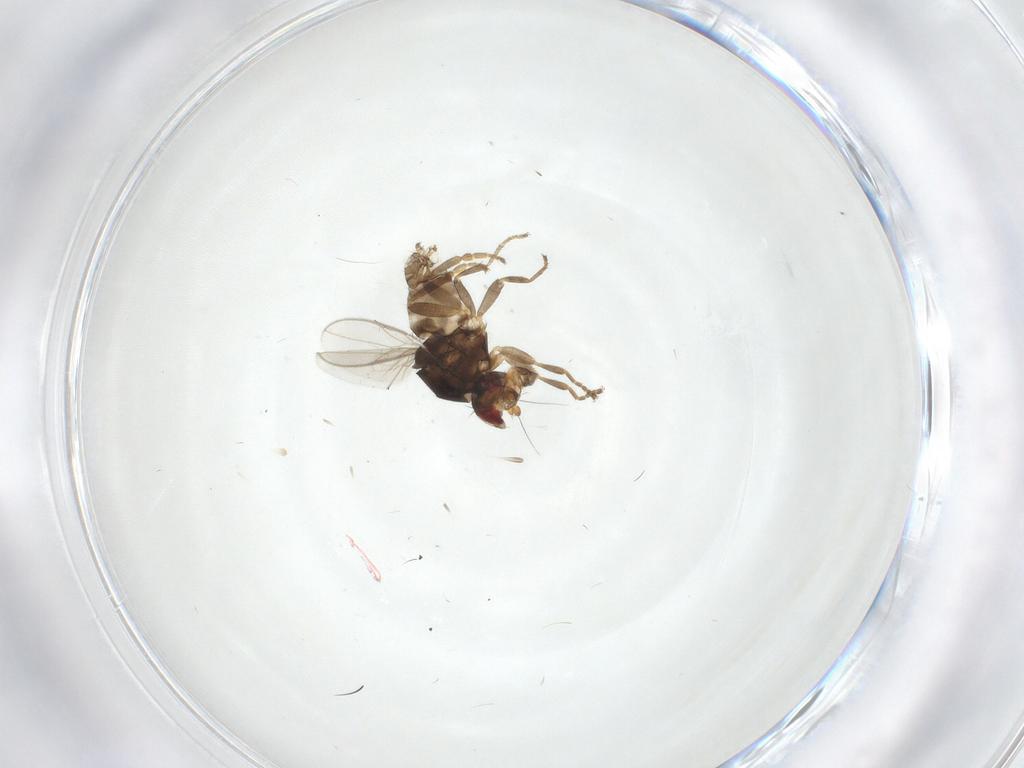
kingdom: Animalia
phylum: Arthropoda
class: Insecta
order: Diptera
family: Sphaeroceridae
